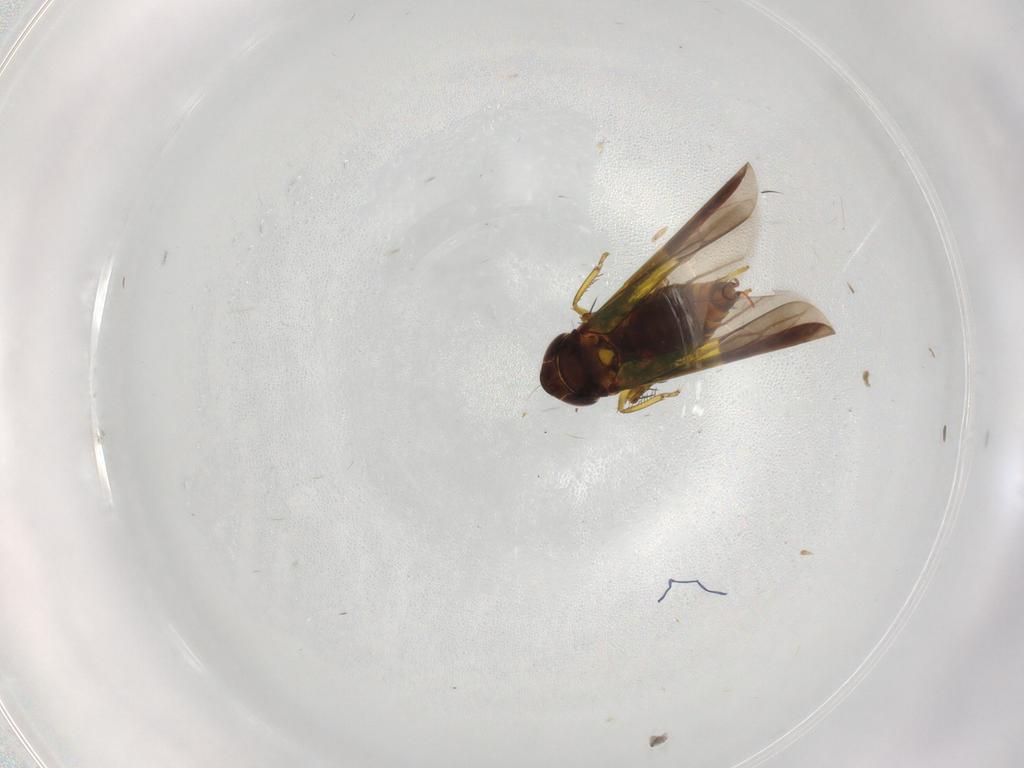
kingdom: Animalia
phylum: Arthropoda
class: Insecta
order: Hemiptera
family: Cicadellidae
